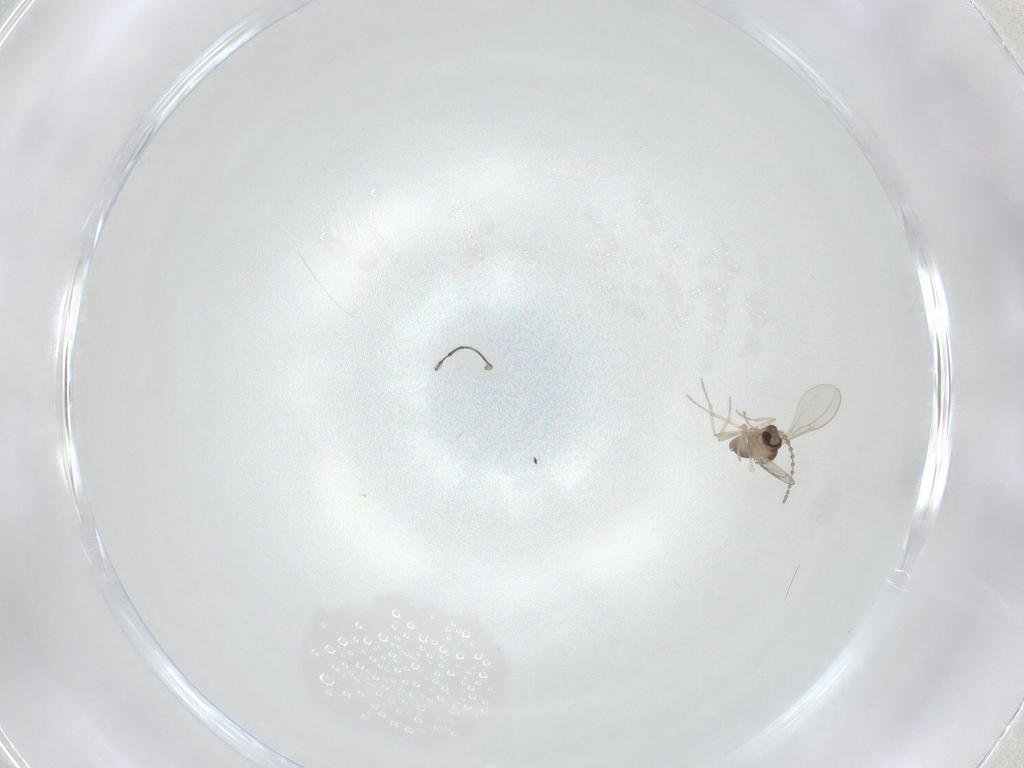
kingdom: Animalia
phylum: Arthropoda
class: Insecta
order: Diptera
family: Cecidomyiidae
